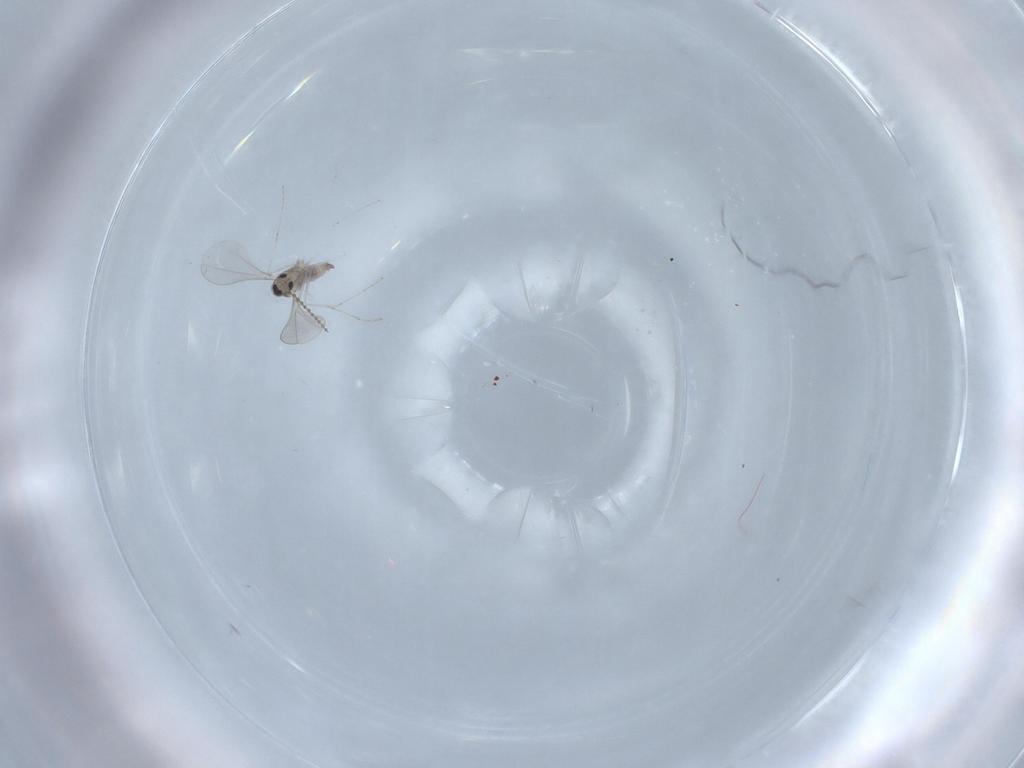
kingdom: Animalia
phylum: Arthropoda
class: Insecta
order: Diptera
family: Cecidomyiidae
